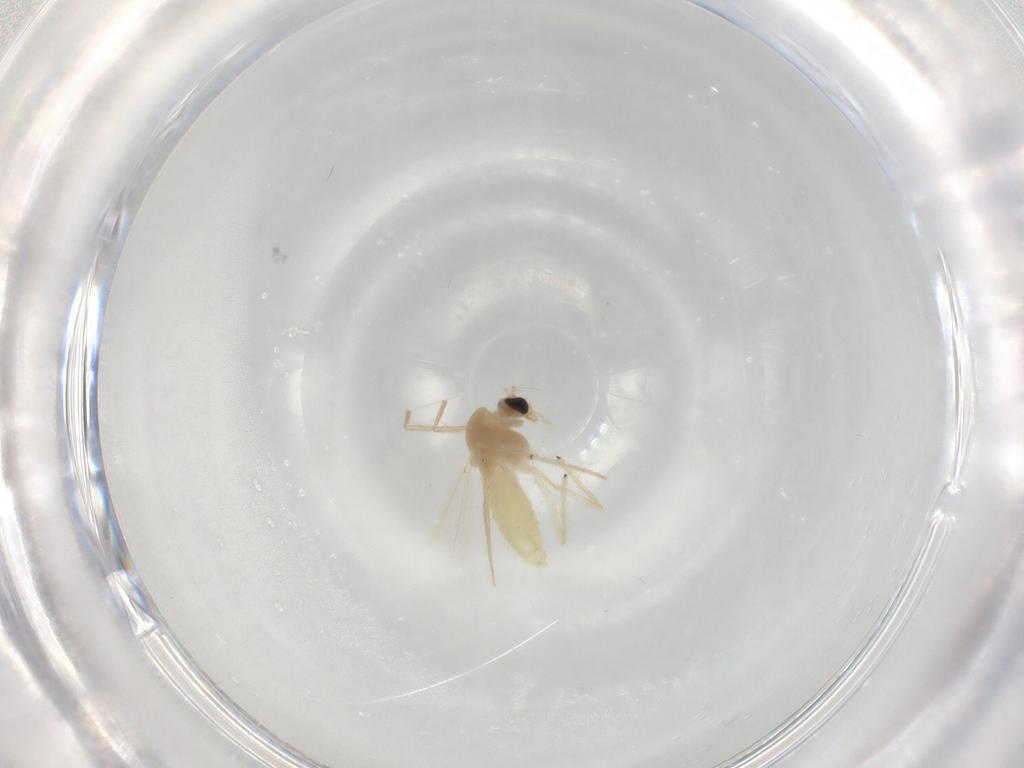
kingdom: Animalia
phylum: Arthropoda
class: Insecta
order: Diptera
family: Chironomidae
